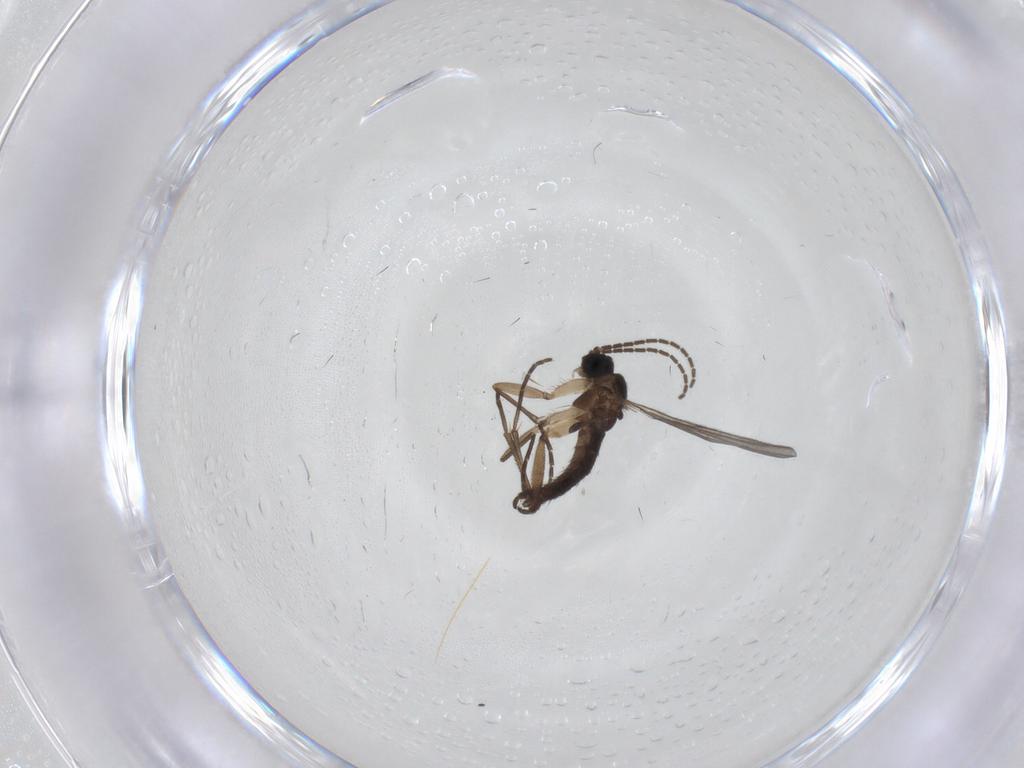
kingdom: Animalia
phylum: Arthropoda
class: Insecta
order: Diptera
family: Sciaridae
